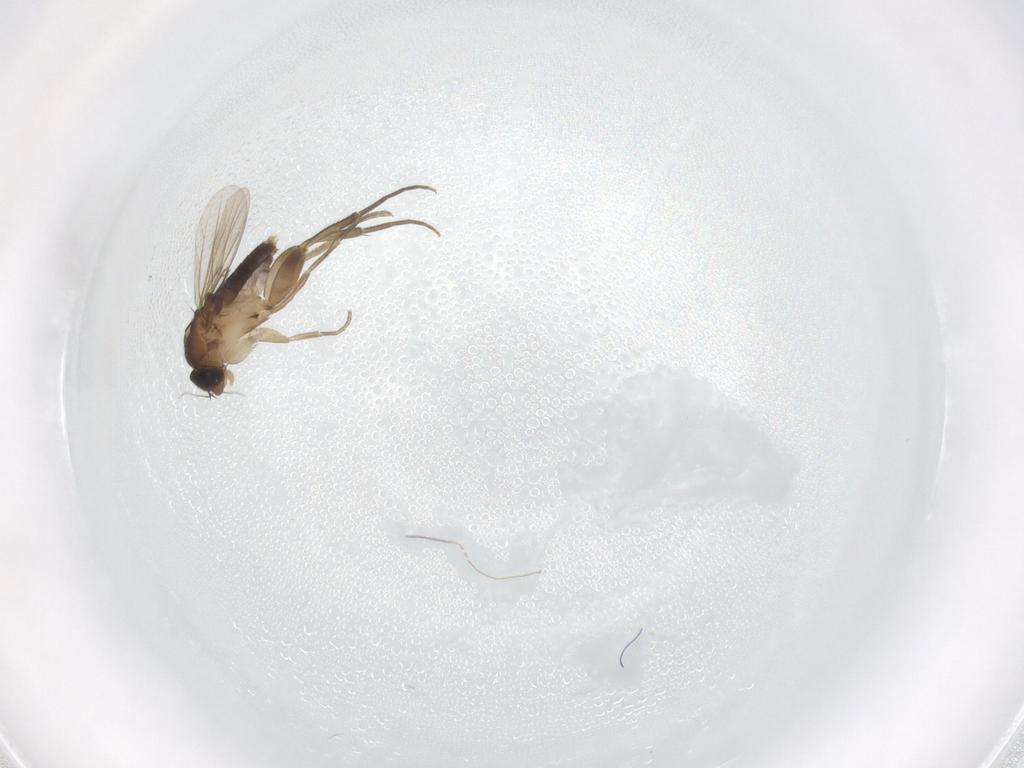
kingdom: Animalia
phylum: Arthropoda
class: Insecta
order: Diptera
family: Phoridae
